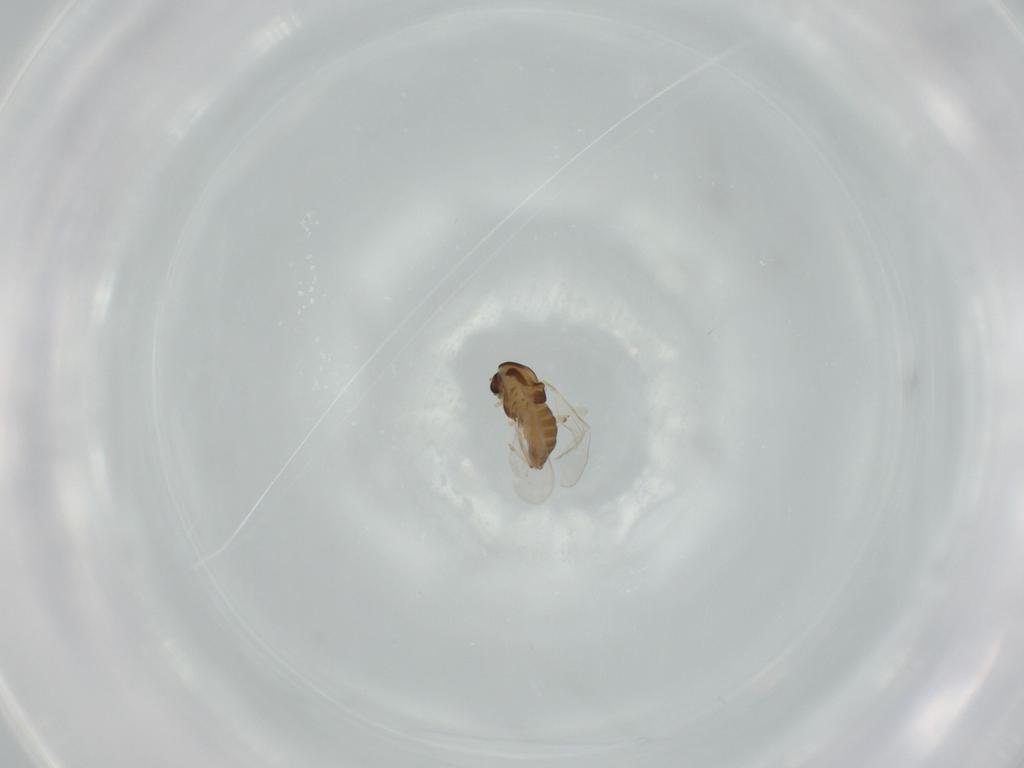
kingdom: Animalia
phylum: Arthropoda
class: Insecta
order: Diptera
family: Chironomidae
